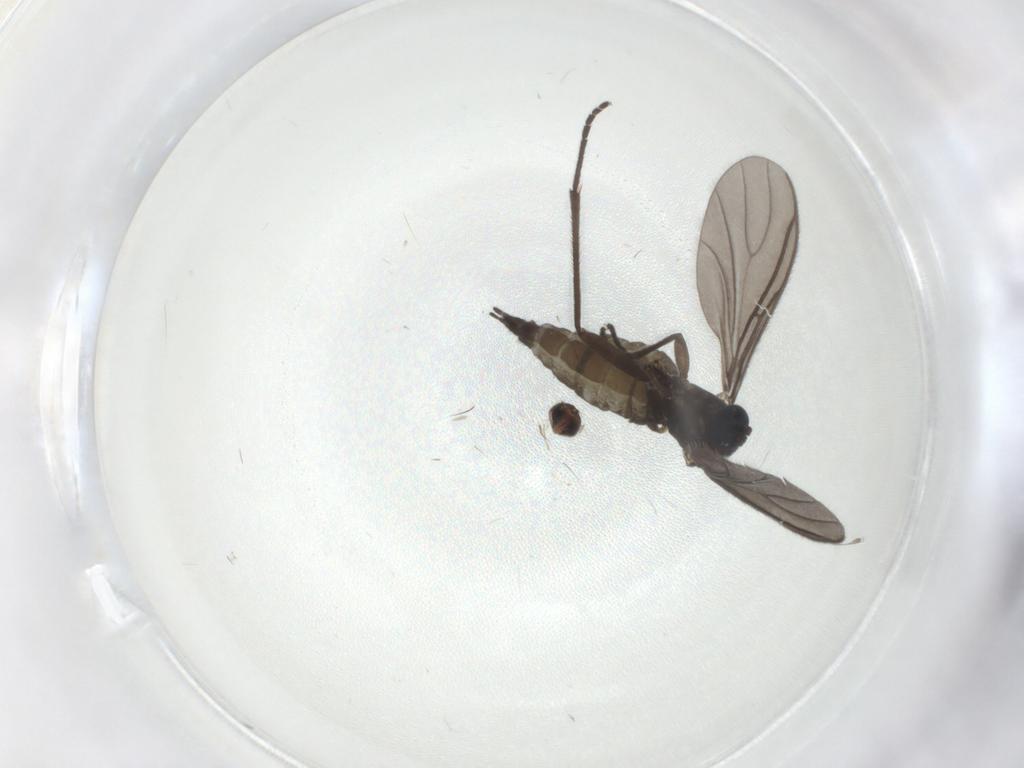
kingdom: Animalia
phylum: Arthropoda
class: Insecta
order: Diptera
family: Sciaridae
